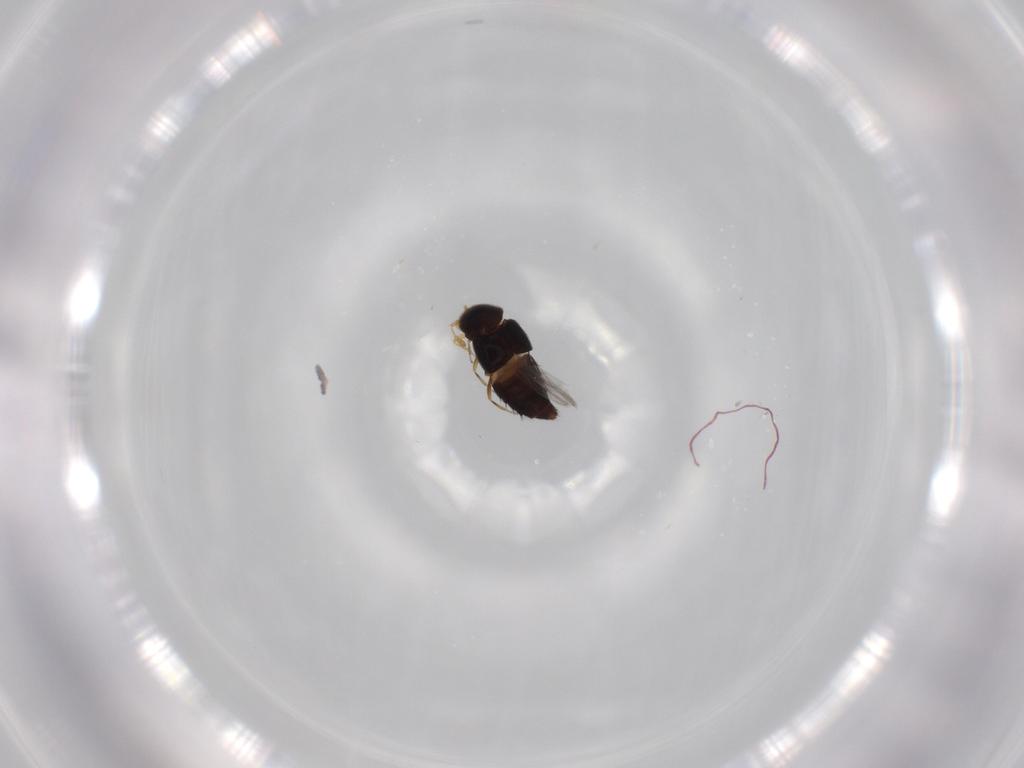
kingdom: Animalia
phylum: Arthropoda
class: Insecta
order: Coleoptera
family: Staphylinidae
